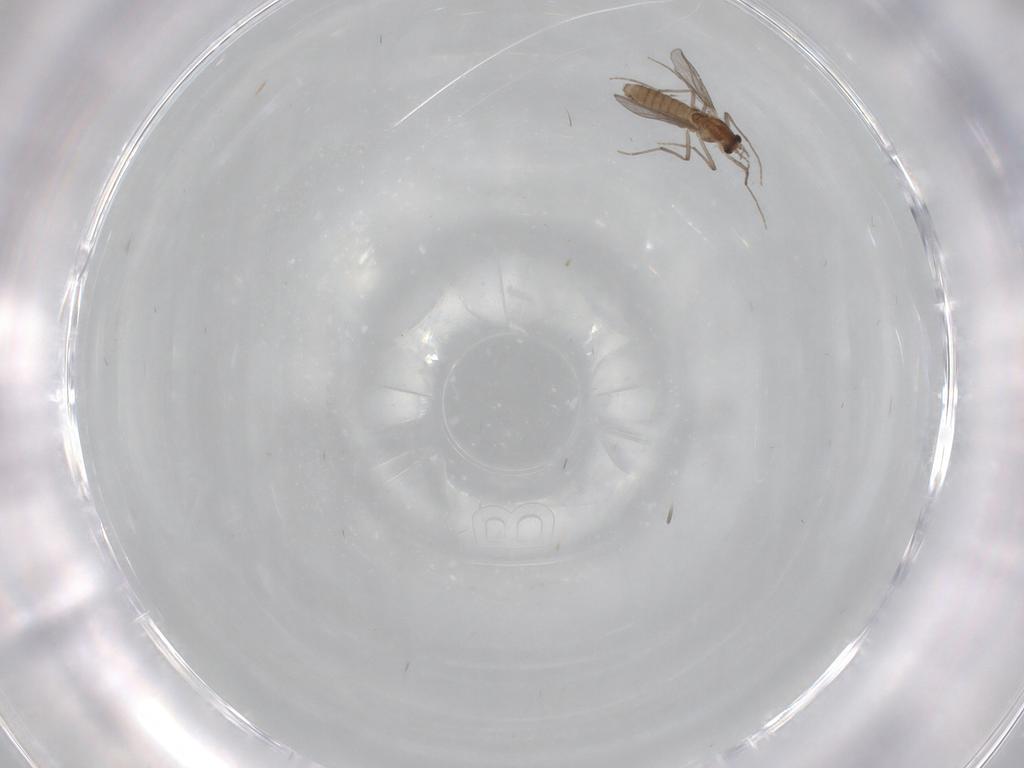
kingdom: Animalia
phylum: Arthropoda
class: Insecta
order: Diptera
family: Chironomidae
